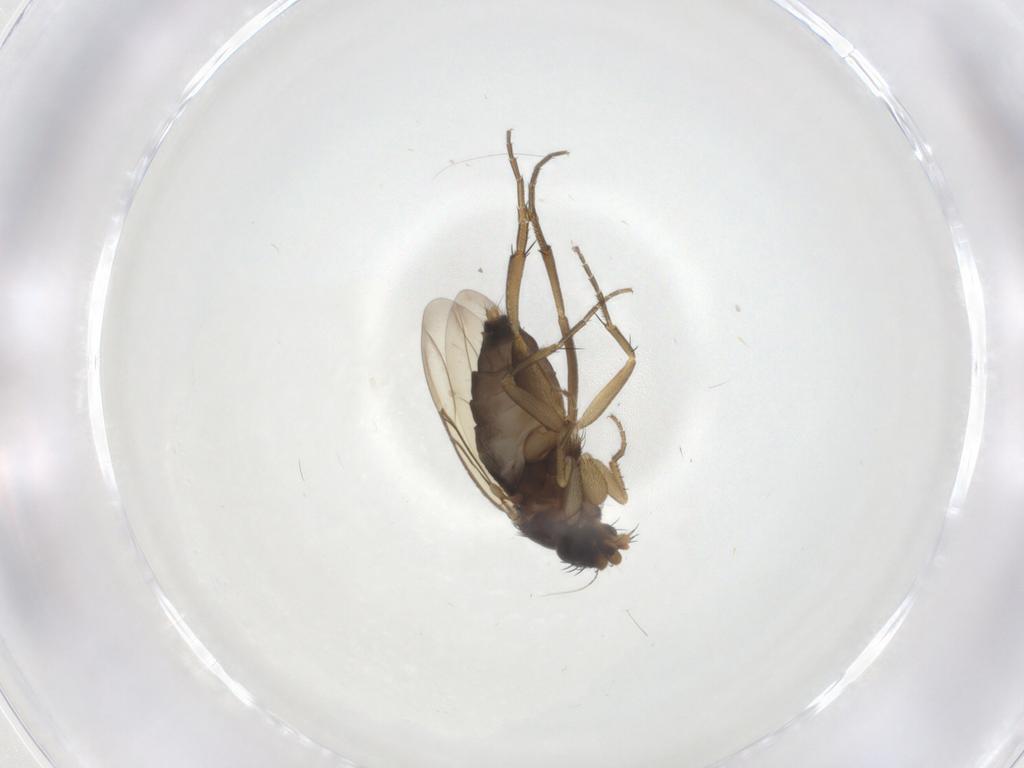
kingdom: Animalia
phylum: Arthropoda
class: Insecta
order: Diptera
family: Phoridae
